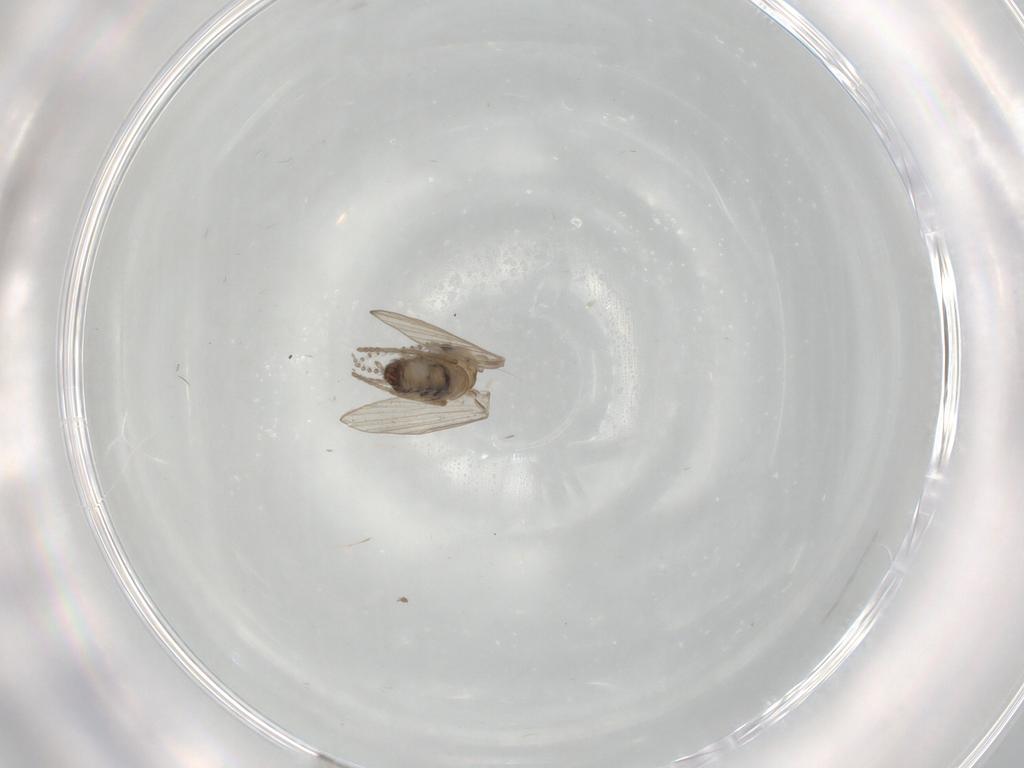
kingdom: Animalia
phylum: Arthropoda
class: Insecta
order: Diptera
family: Psychodidae
